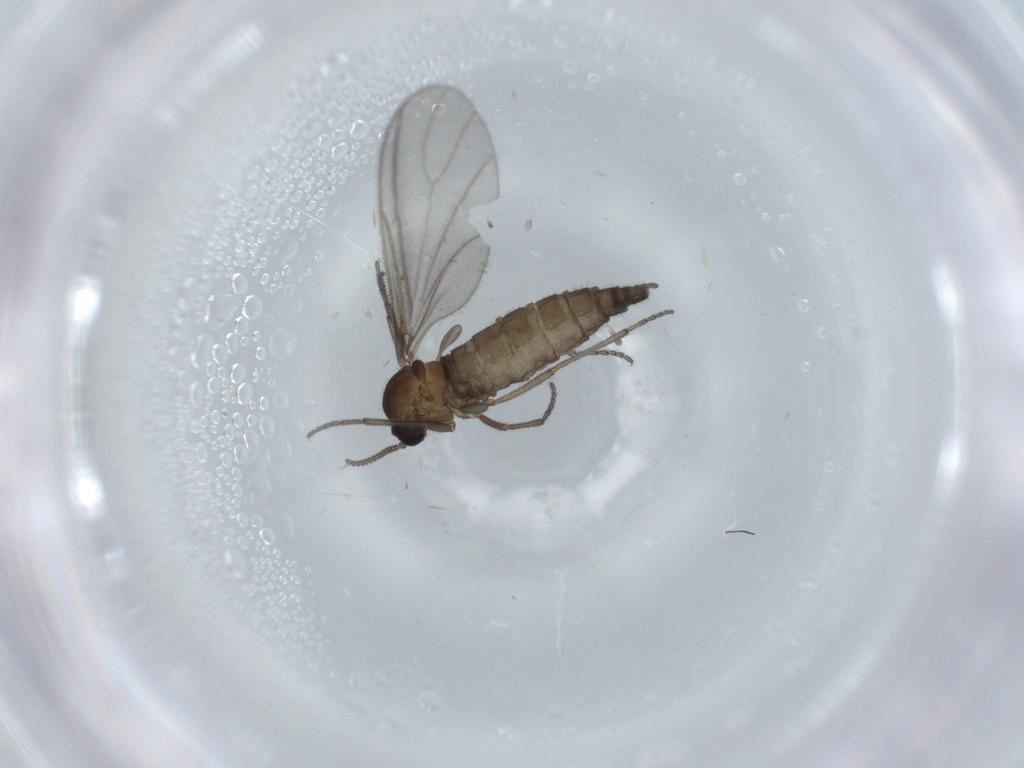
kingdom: Animalia
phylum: Arthropoda
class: Insecta
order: Diptera
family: Sciaridae
